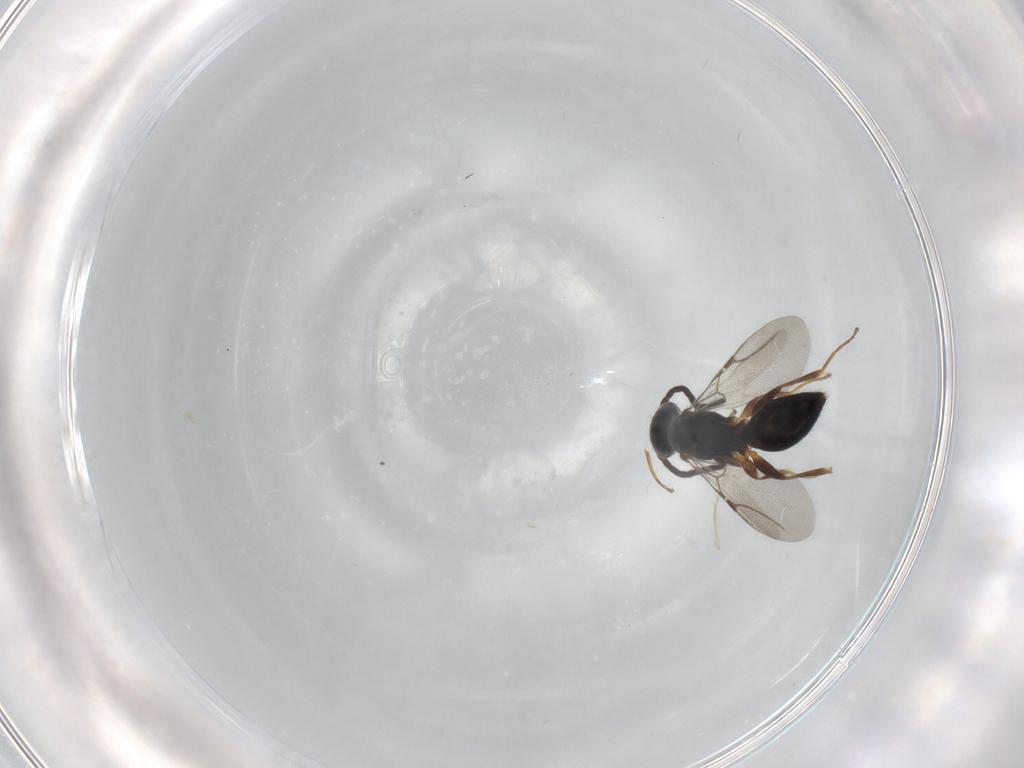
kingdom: Animalia
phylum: Arthropoda
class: Insecta
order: Hymenoptera
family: Bethylidae
